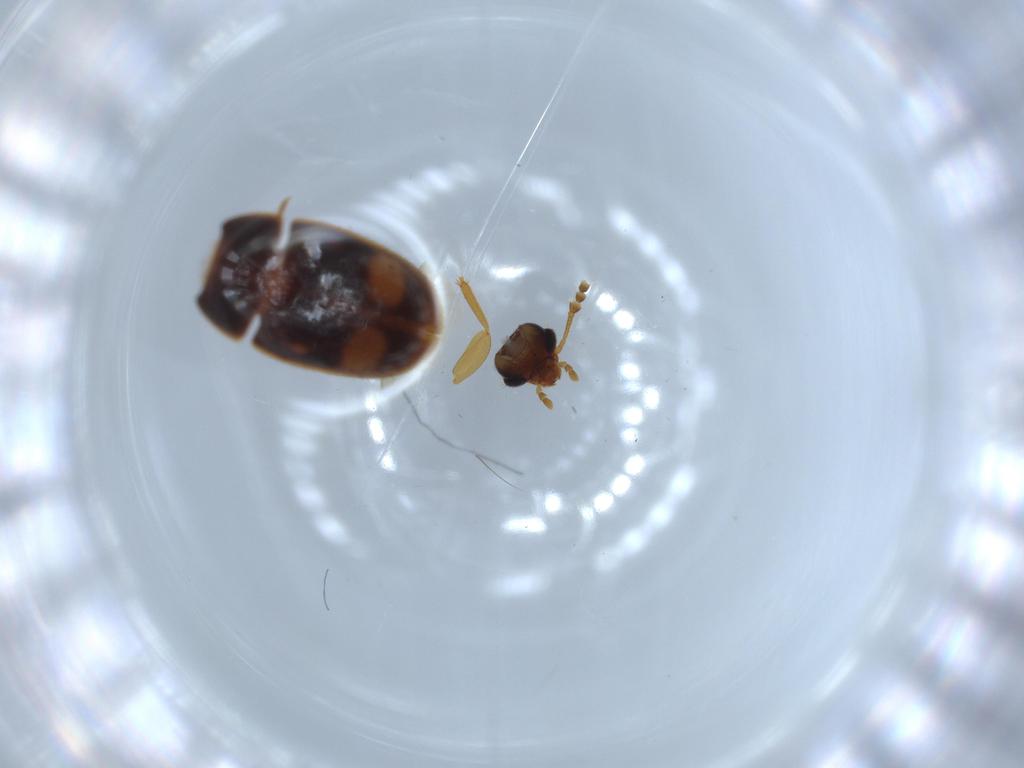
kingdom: Animalia
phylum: Arthropoda
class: Insecta
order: Coleoptera
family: Mycetophagidae
